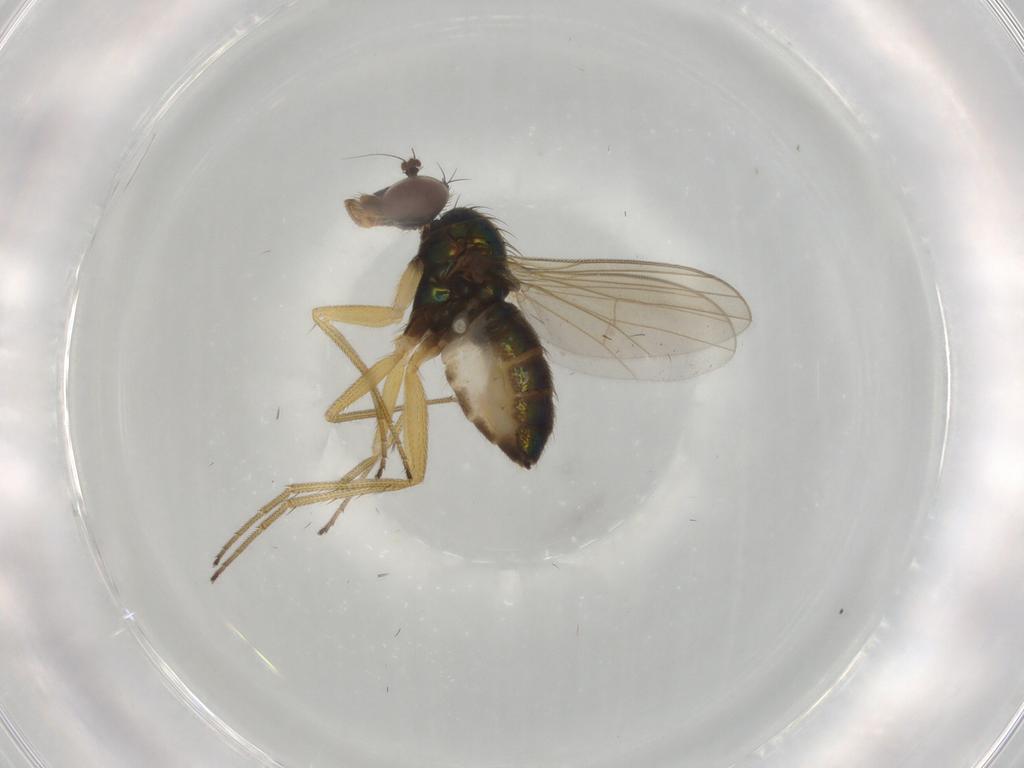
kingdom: Animalia
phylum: Arthropoda
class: Insecta
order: Diptera
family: Dolichopodidae
